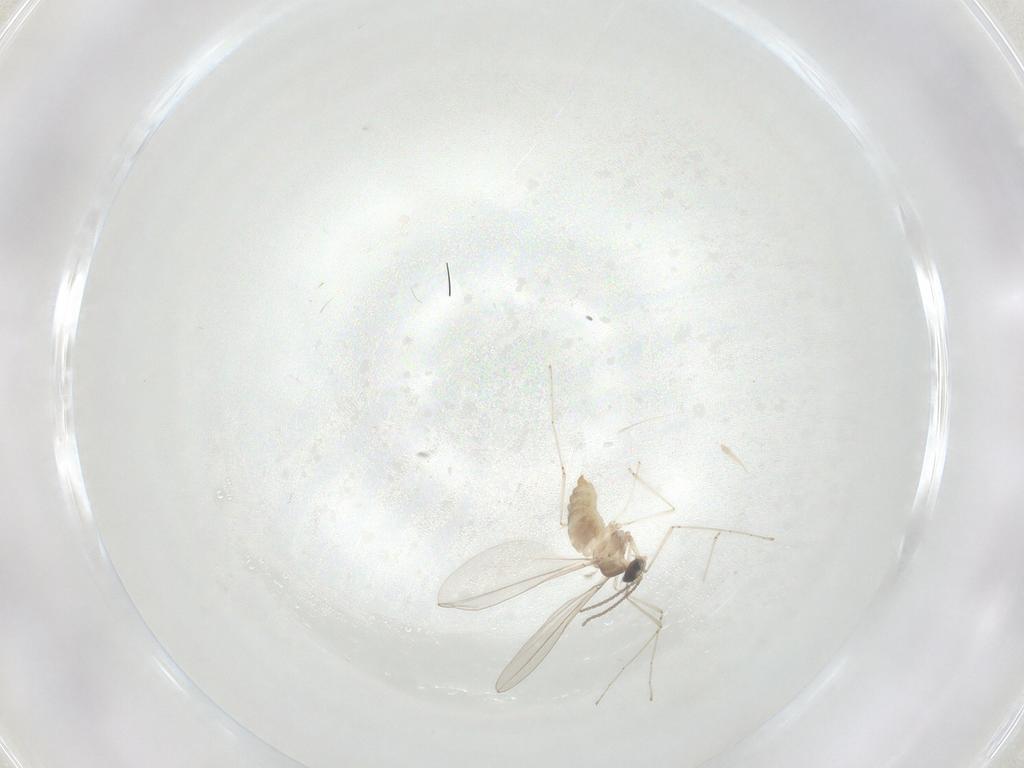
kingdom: Animalia
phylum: Arthropoda
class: Insecta
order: Diptera
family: Cecidomyiidae
